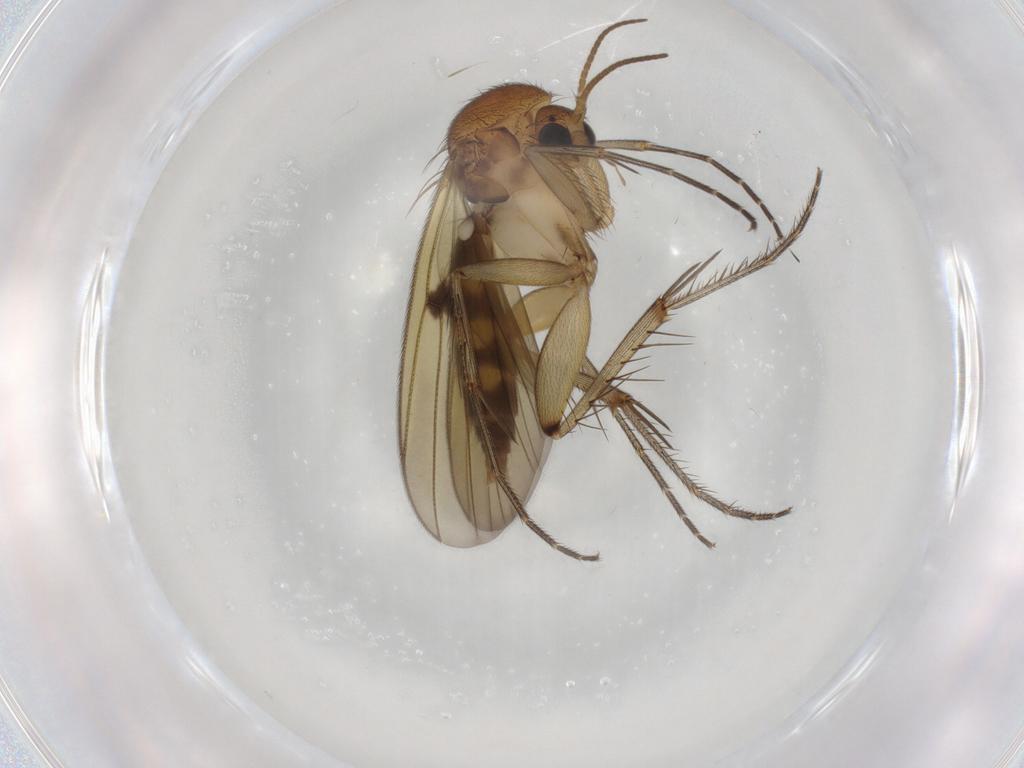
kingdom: Animalia
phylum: Arthropoda
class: Insecta
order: Diptera
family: Mycetophilidae
